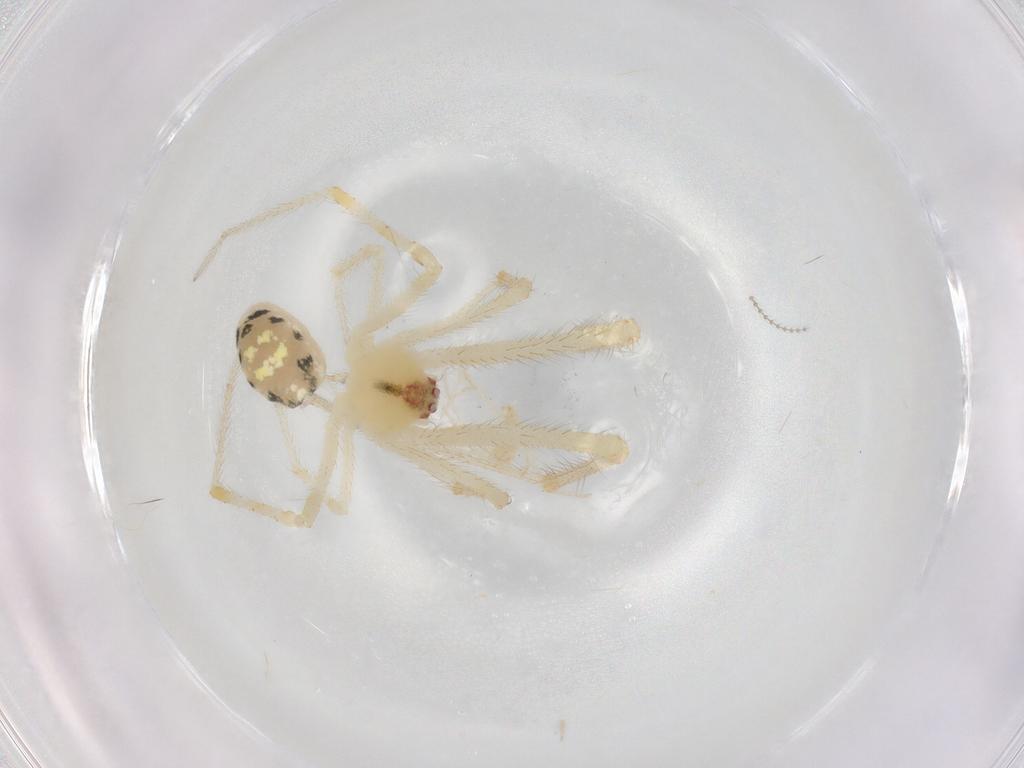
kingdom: Animalia
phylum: Arthropoda
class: Arachnida
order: Araneae
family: Theridiidae
